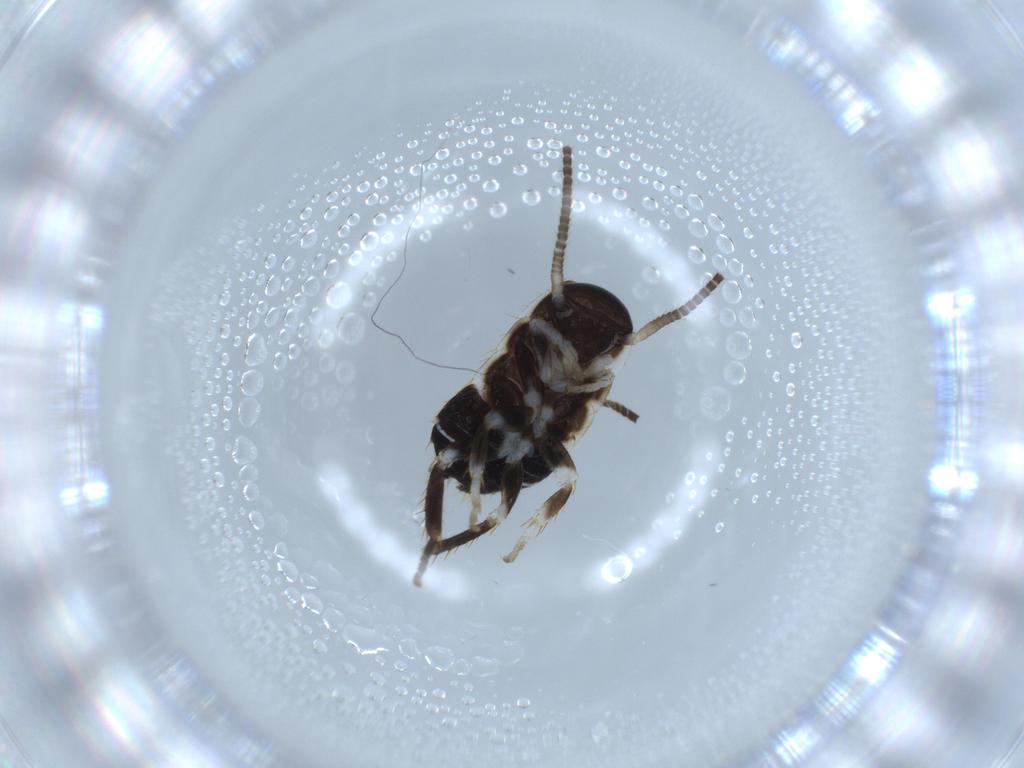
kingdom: Animalia
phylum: Arthropoda
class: Insecta
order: Blattodea
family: Ectobiidae
